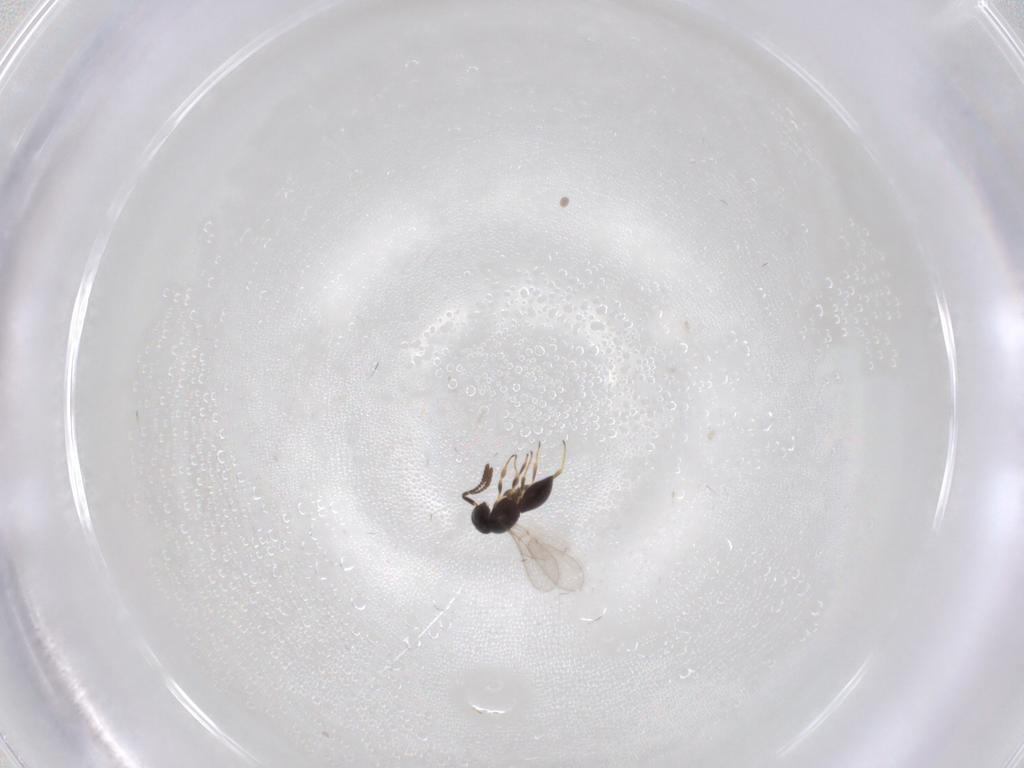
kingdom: Animalia
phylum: Arthropoda
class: Insecta
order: Hymenoptera
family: Scelionidae
